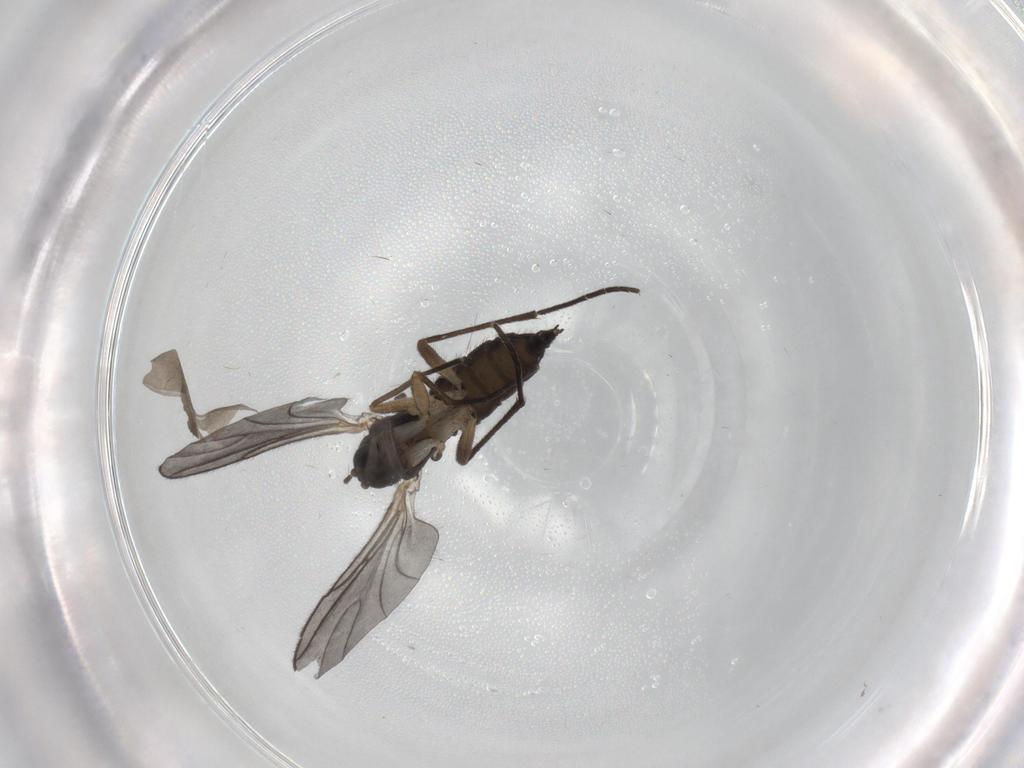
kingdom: Animalia
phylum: Arthropoda
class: Insecta
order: Diptera
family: Sciaridae
